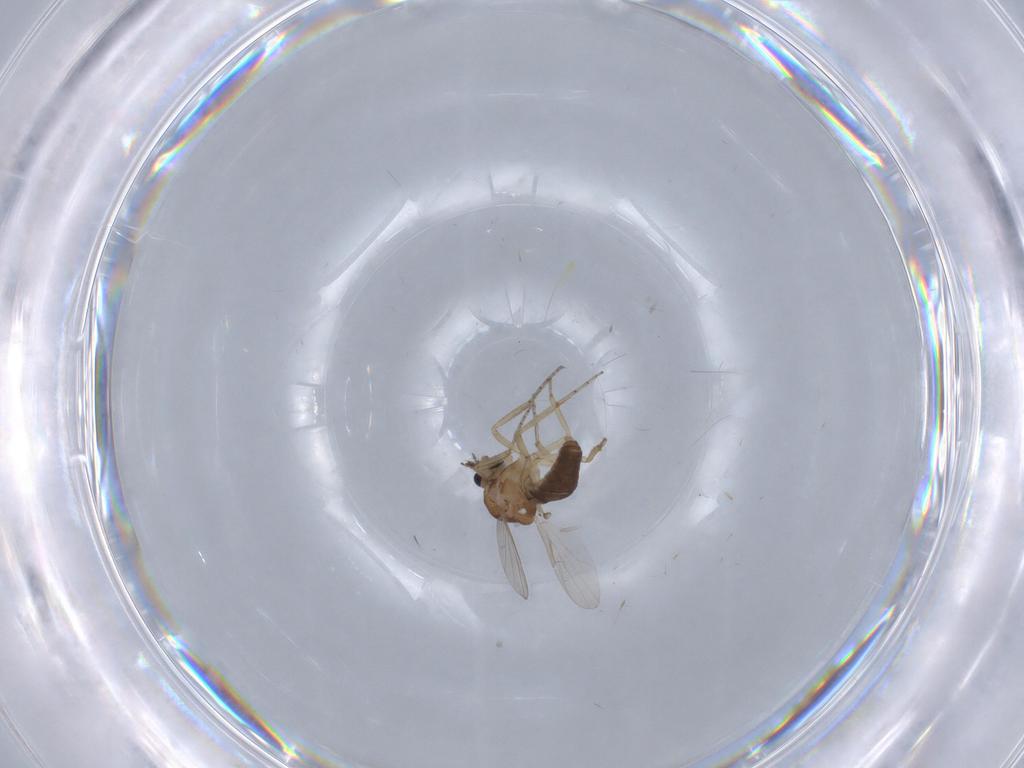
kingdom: Animalia
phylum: Arthropoda
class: Insecta
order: Diptera
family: Ceratopogonidae
